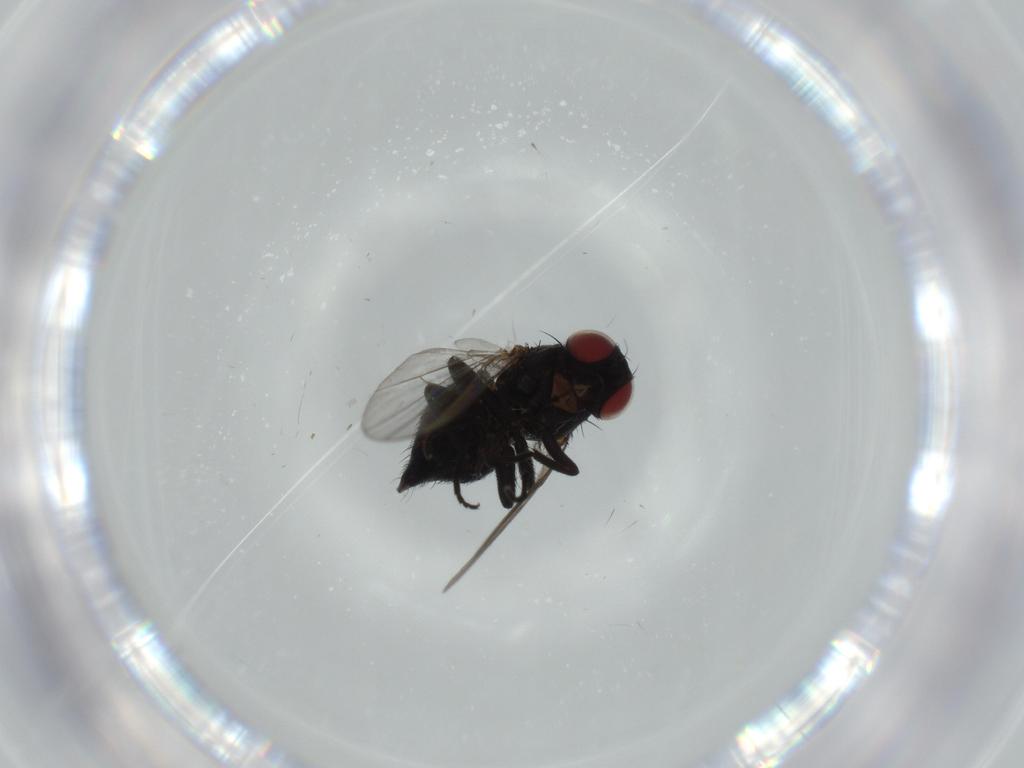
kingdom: Animalia
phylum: Arthropoda
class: Insecta
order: Diptera
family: Agromyzidae
